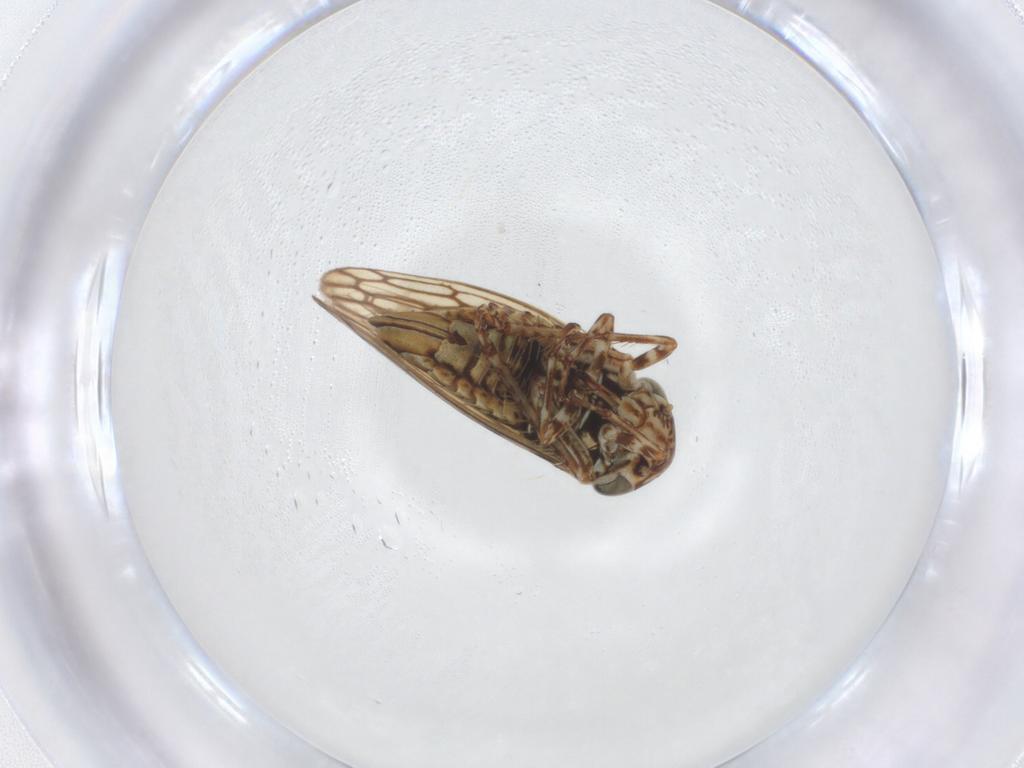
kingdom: Animalia
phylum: Arthropoda
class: Insecta
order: Hemiptera
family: Cicadellidae
